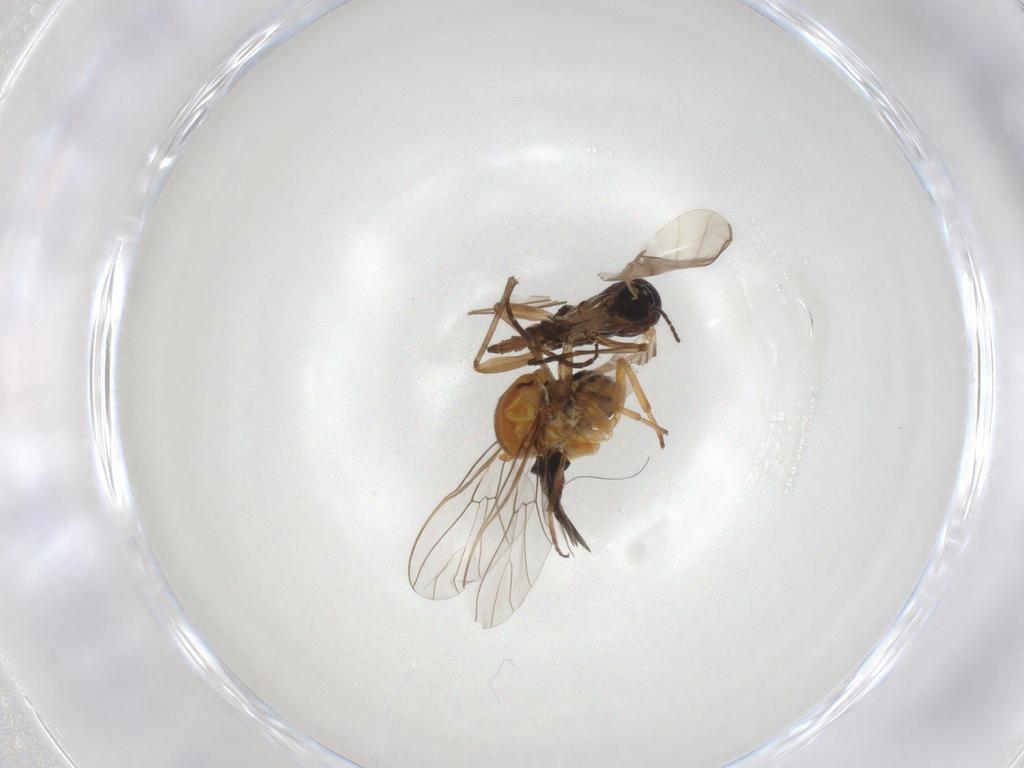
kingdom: Animalia
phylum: Arthropoda
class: Insecta
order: Diptera
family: Bombyliidae
